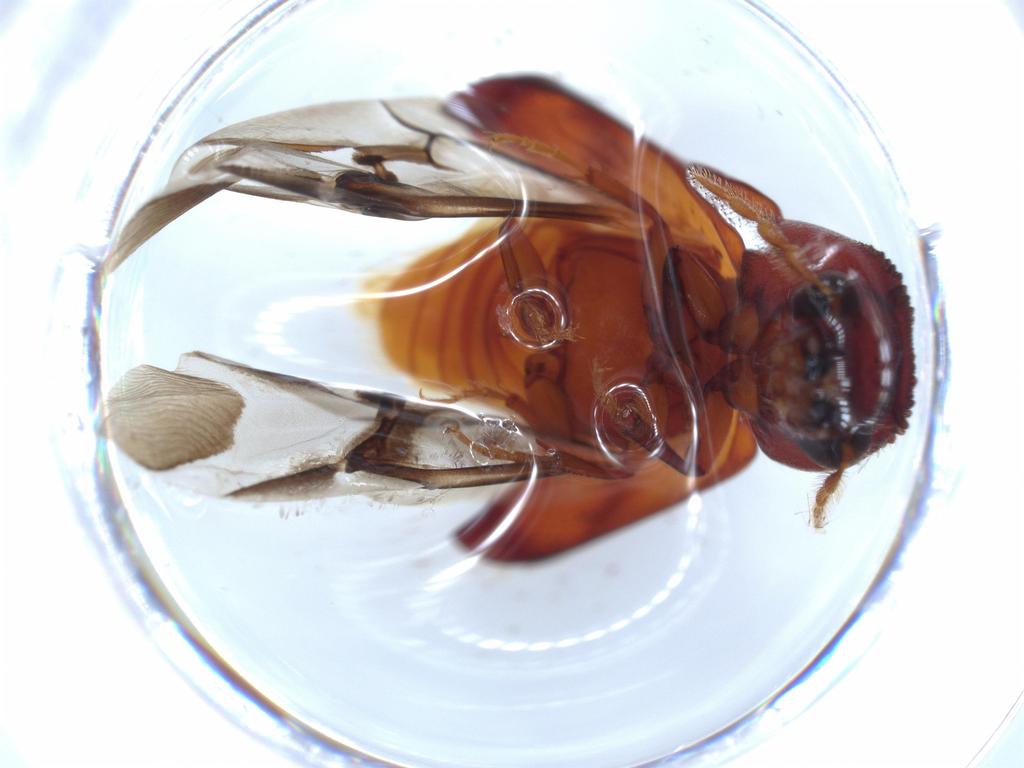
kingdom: Animalia
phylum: Arthropoda
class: Insecta
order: Coleoptera
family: Bostrichidae
